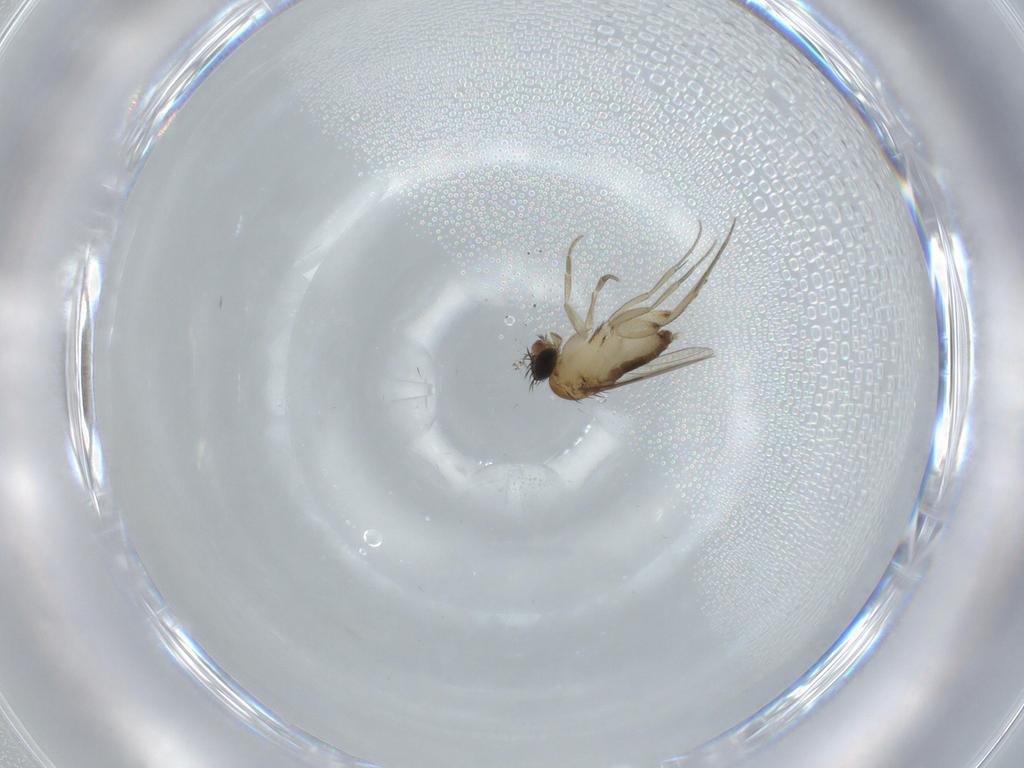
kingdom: Animalia
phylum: Arthropoda
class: Insecta
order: Diptera
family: Phoridae
